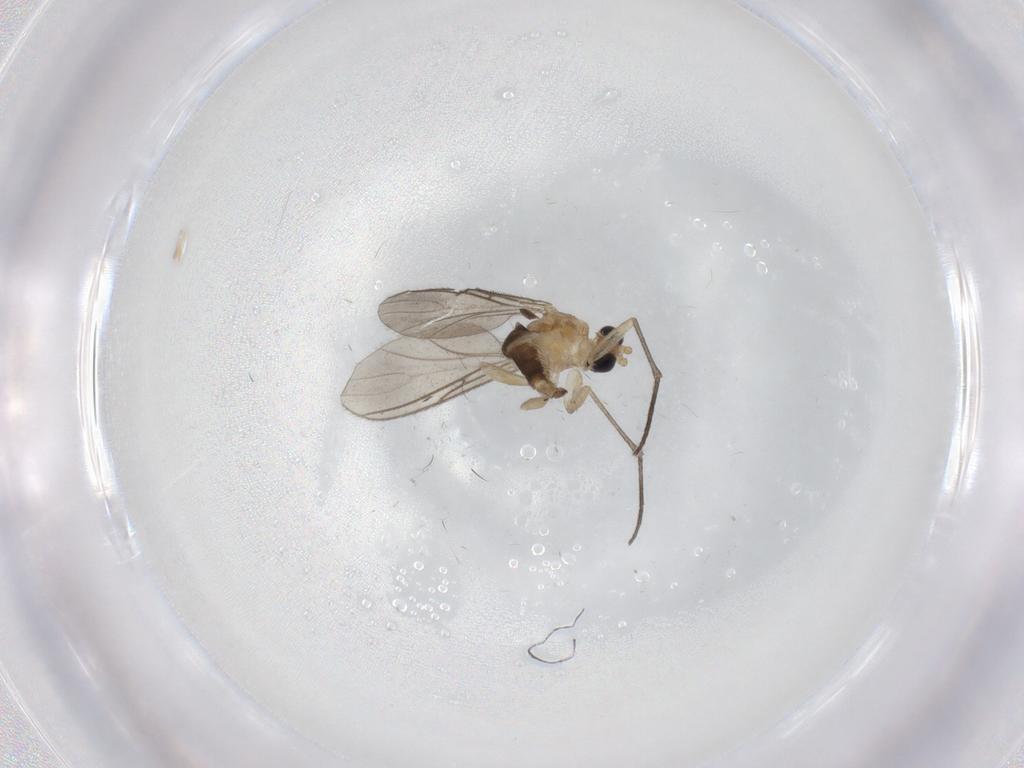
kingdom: Animalia
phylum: Arthropoda
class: Insecta
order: Diptera
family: Sciaridae
